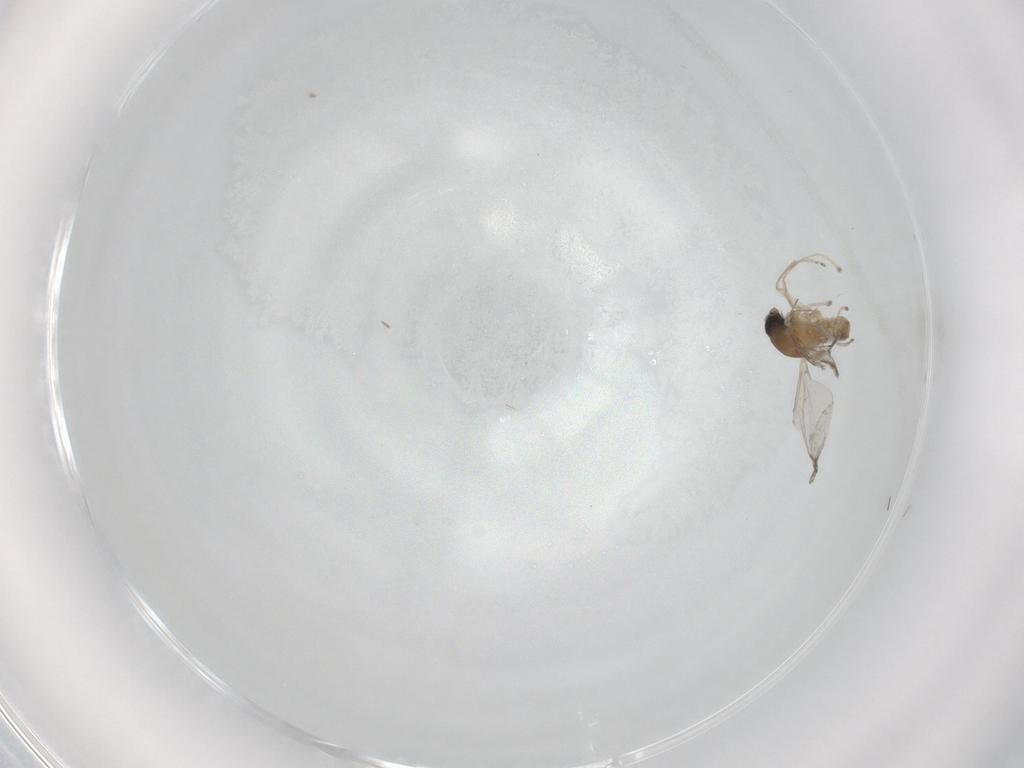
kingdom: Animalia
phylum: Arthropoda
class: Insecta
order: Diptera
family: Cecidomyiidae
